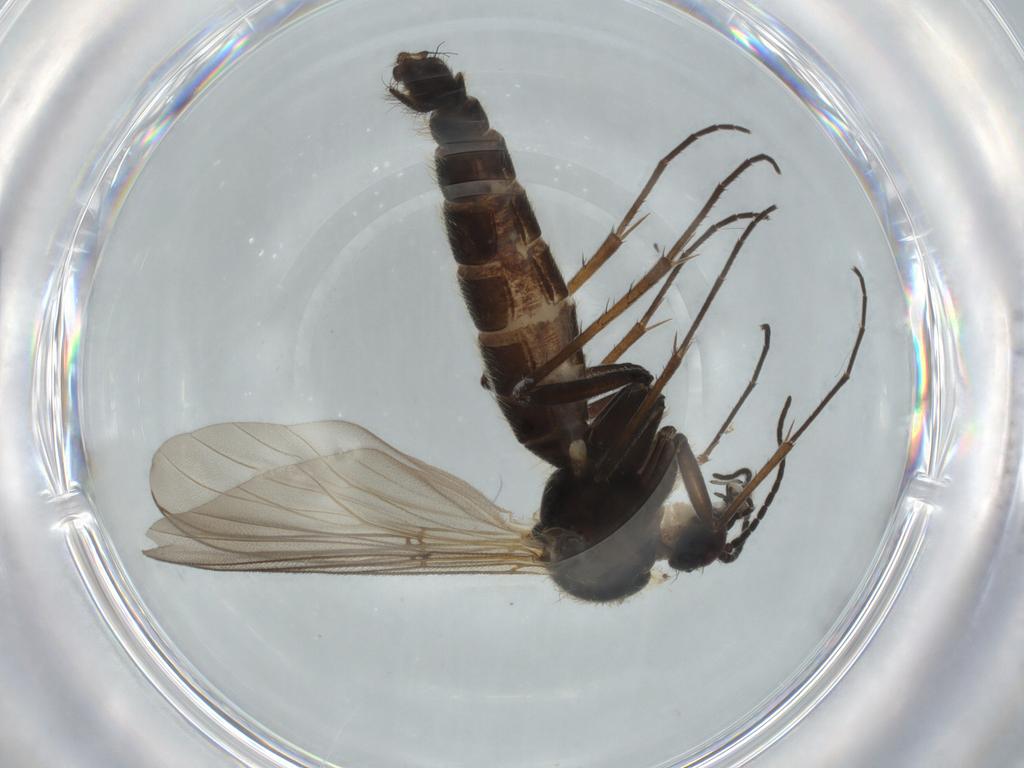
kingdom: Animalia
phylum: Arthropoda
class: Insecta
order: Diptera
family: Mycetophilidae
